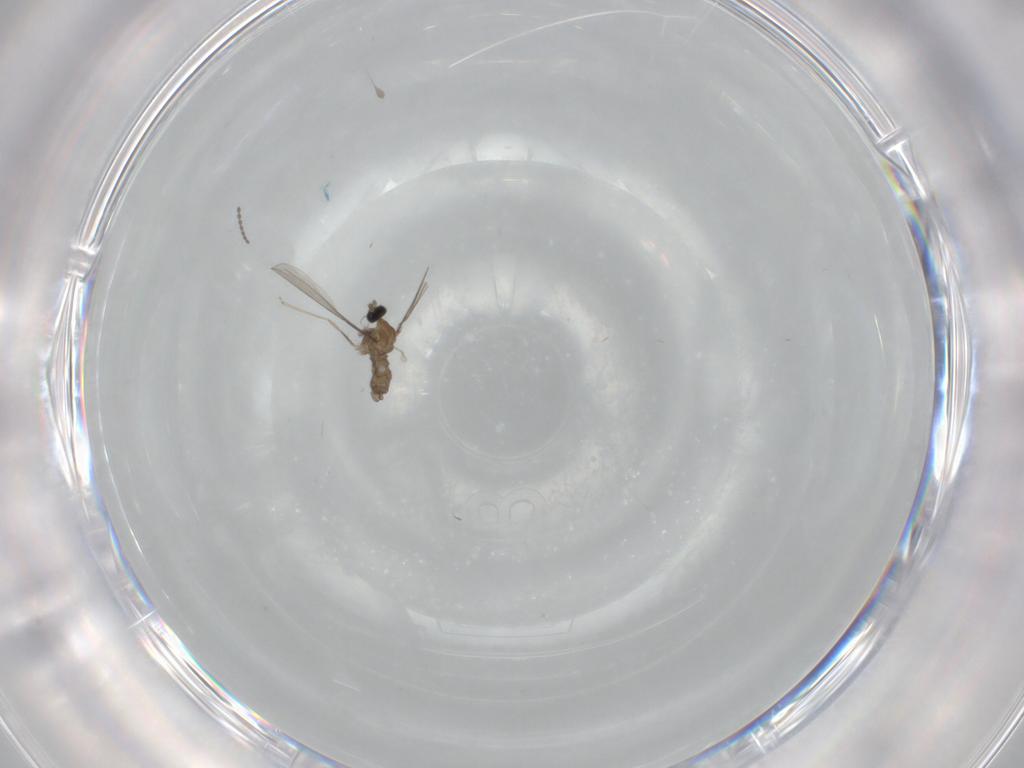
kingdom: Animalia
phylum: Arthropoda
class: Insecta
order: Diptera
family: Cecidomyiidae
